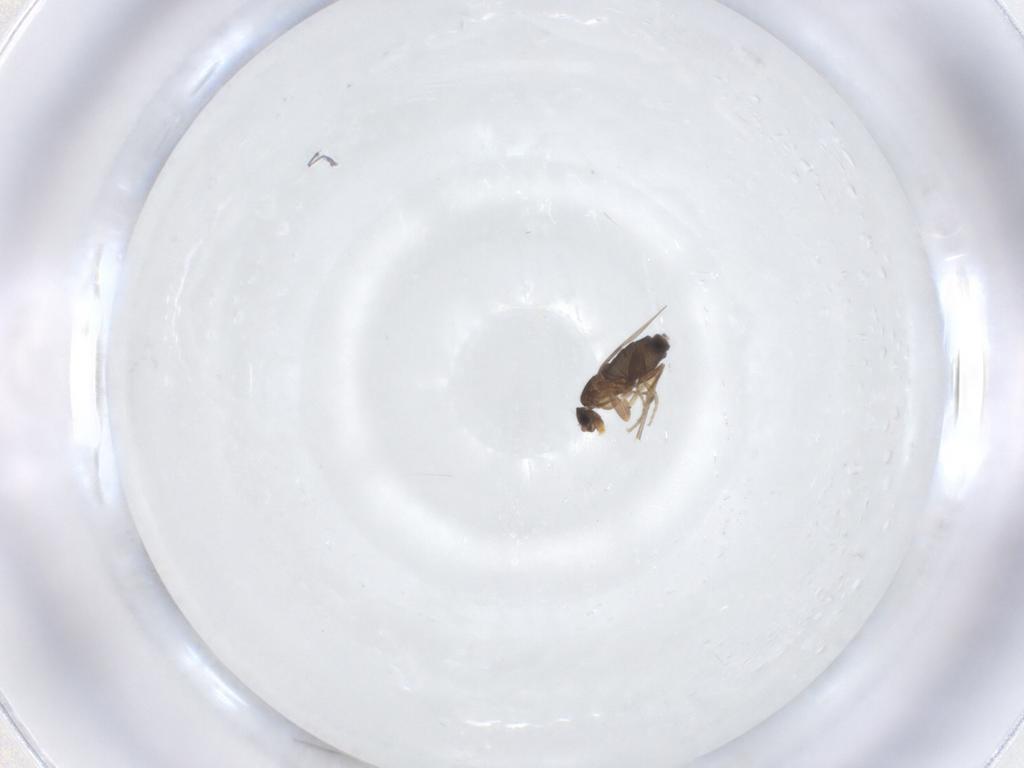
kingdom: Animalia
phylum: Arthropoda
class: Insecta
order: Diptera
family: Phoridae
